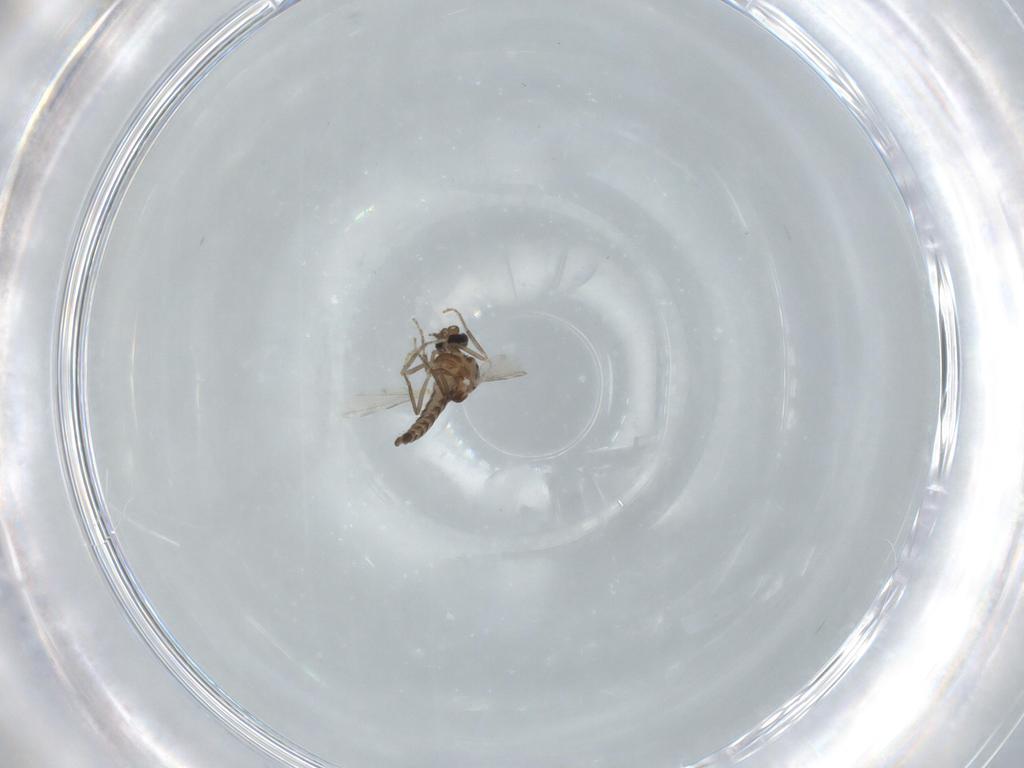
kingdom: Animalia
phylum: Arthropoda
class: Insecta
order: Diptera
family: Ceratopogonidae
